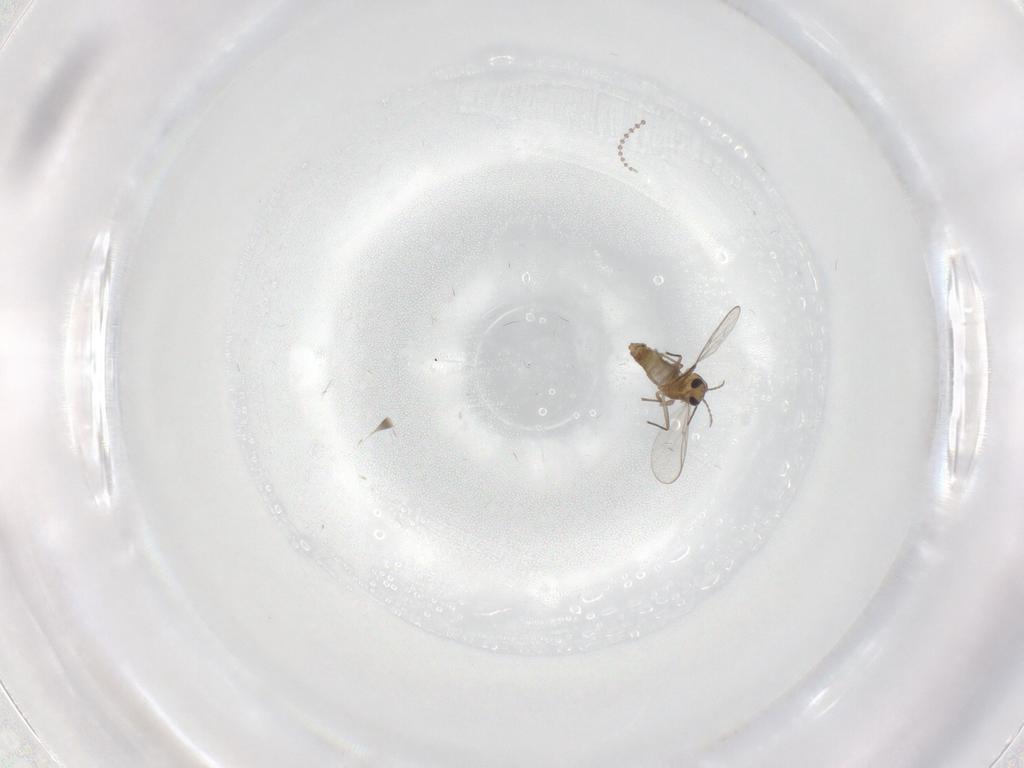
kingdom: Animalia
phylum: Arthropoda
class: Insecta
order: Diptera
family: Chironomidae
